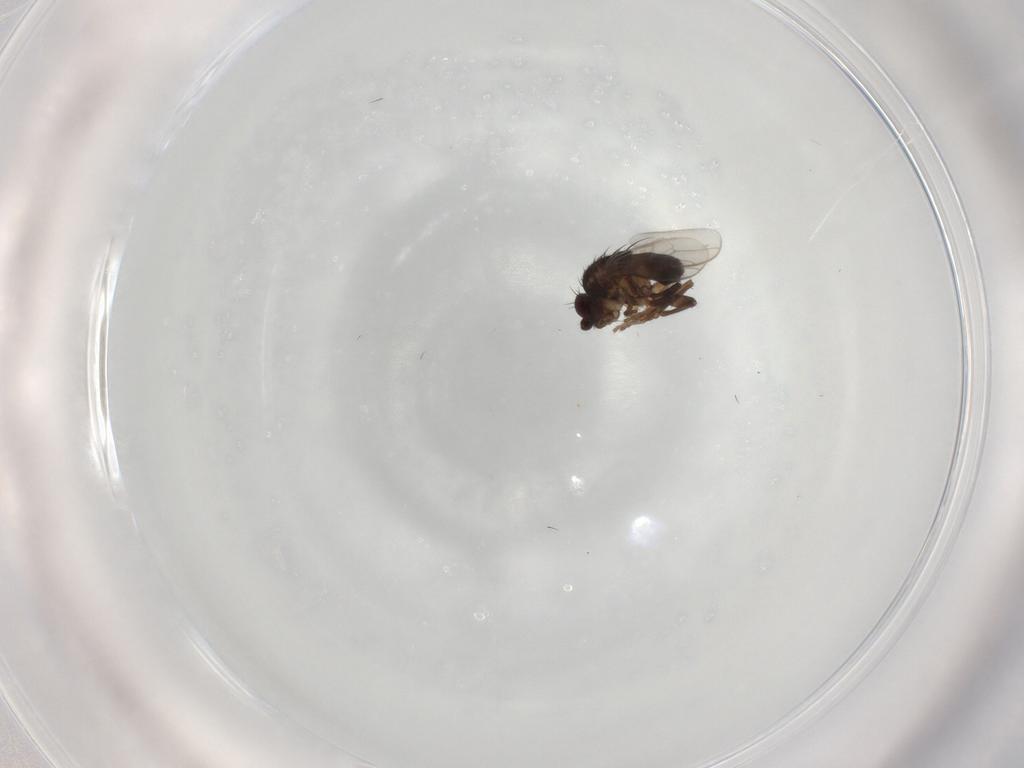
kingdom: Animalia
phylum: Arthropoda
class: Insecta
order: Diptera
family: Sphaeroceridae
